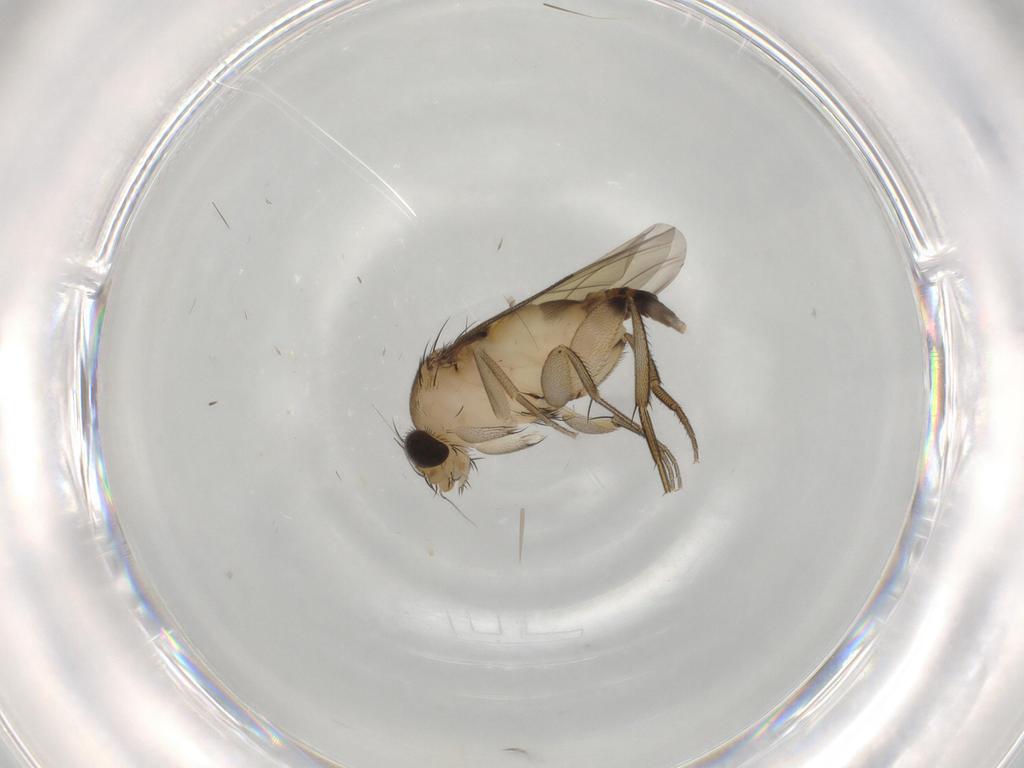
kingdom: Animalia
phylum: Arthropoda
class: Insecta
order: Diptera
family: Phoridae
